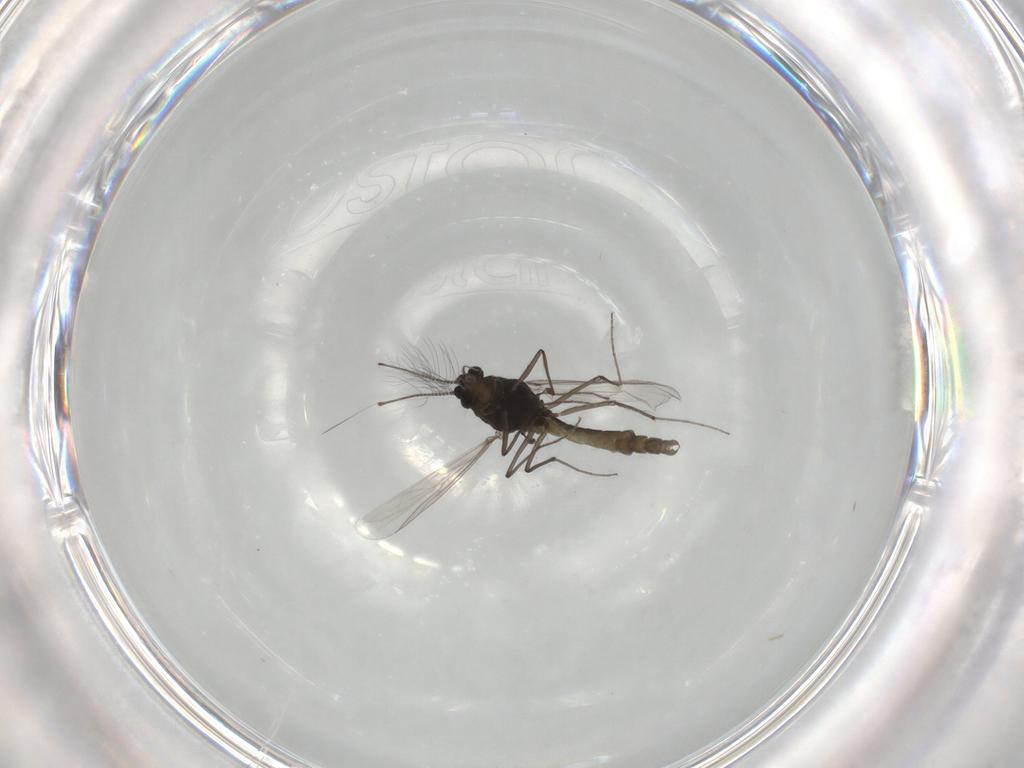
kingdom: Animalia
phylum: Arthropoda
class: Insecta
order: Diptera
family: Chironomidae
